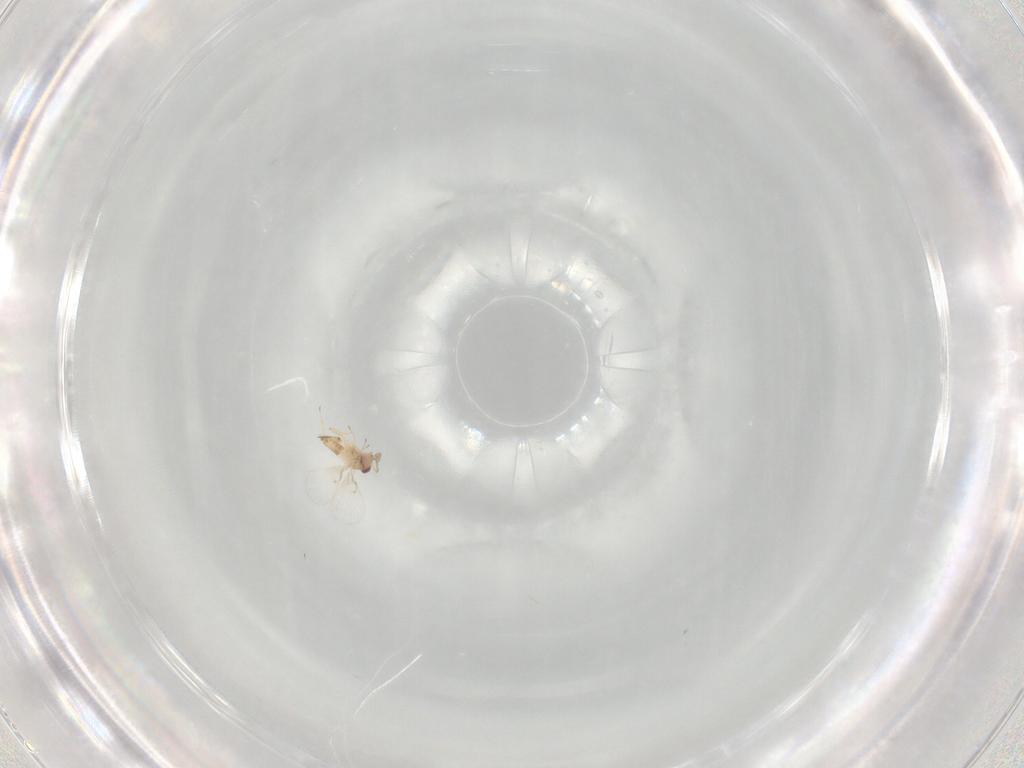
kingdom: Animalia
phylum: Arthropoda
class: Insecta
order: Hymenoptera
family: Trichogrammatidae
